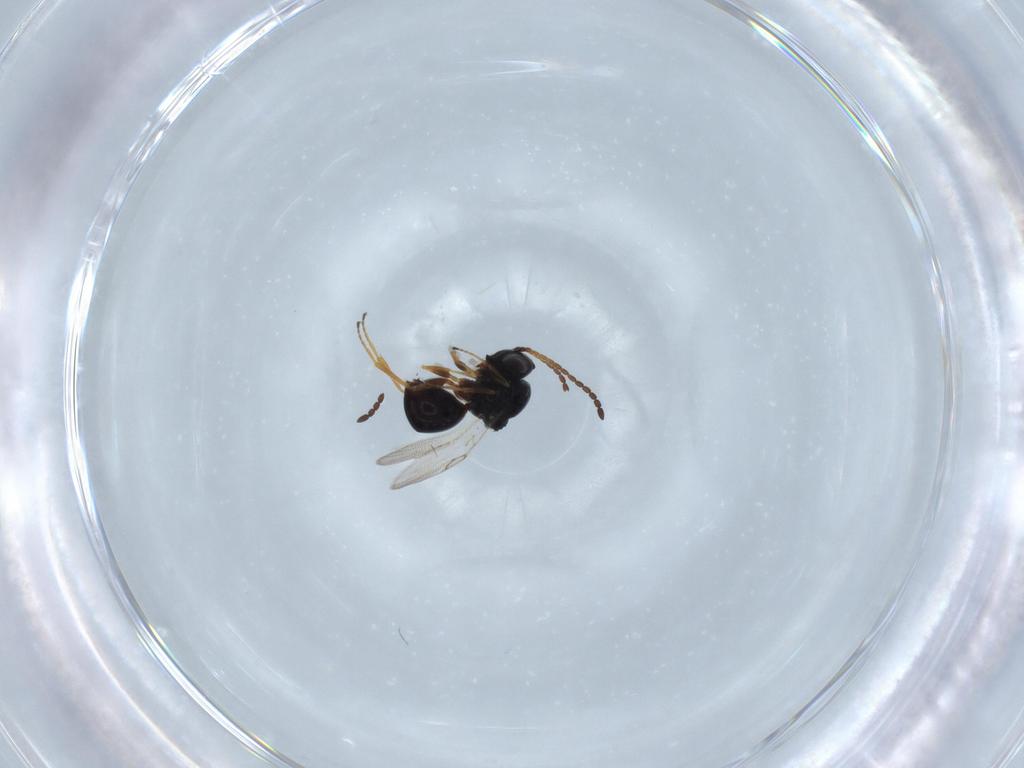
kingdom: Animalia
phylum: Arthropoda
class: Insecta
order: Hymenoptera
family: Figitidae
